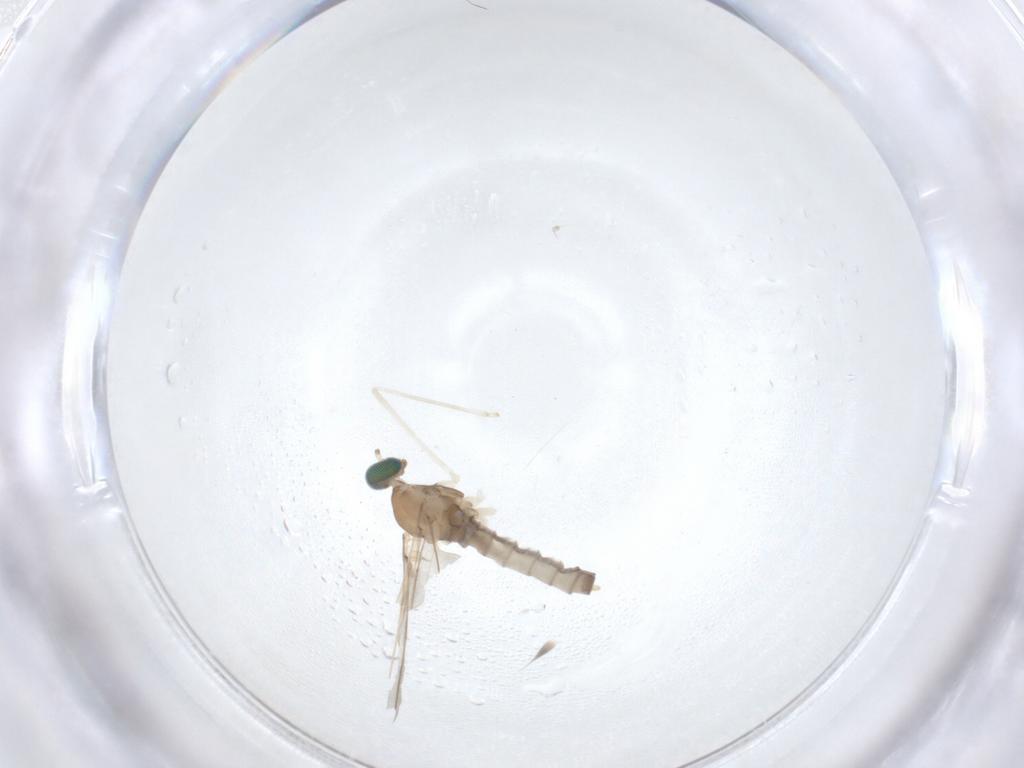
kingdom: Animalia
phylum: Arthropoda
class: Insecta
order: Diptera
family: Cecidomyiidae
